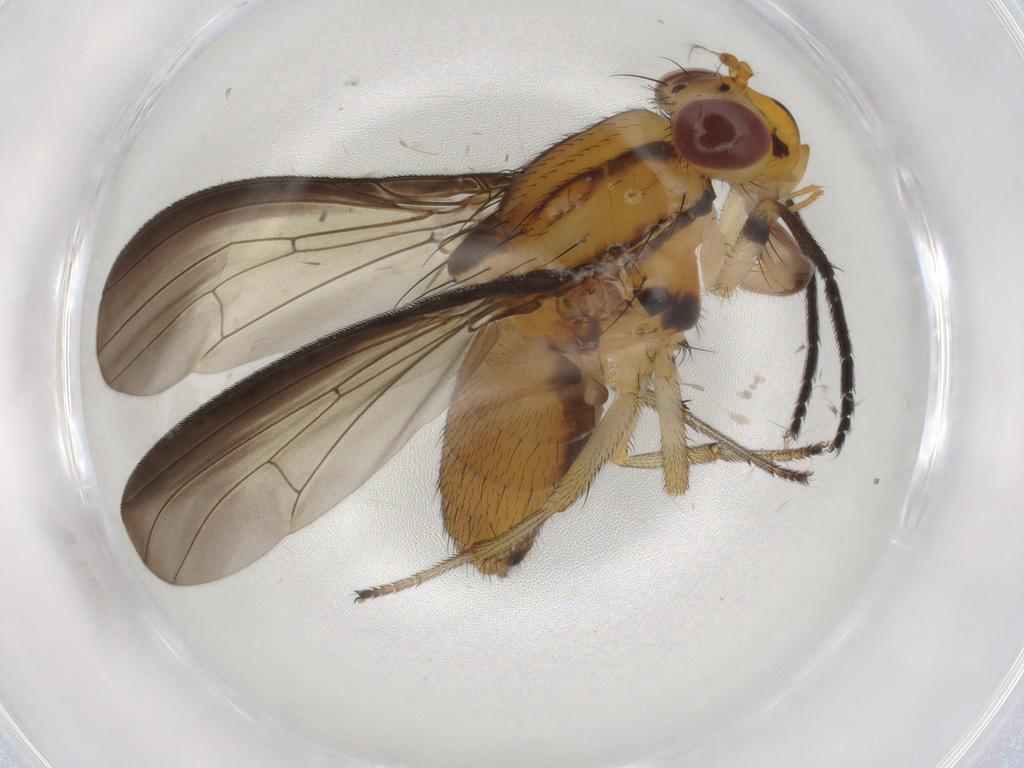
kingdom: Animalia
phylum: Arthropoda
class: Insecta
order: Diptera
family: Lauxaniidae
